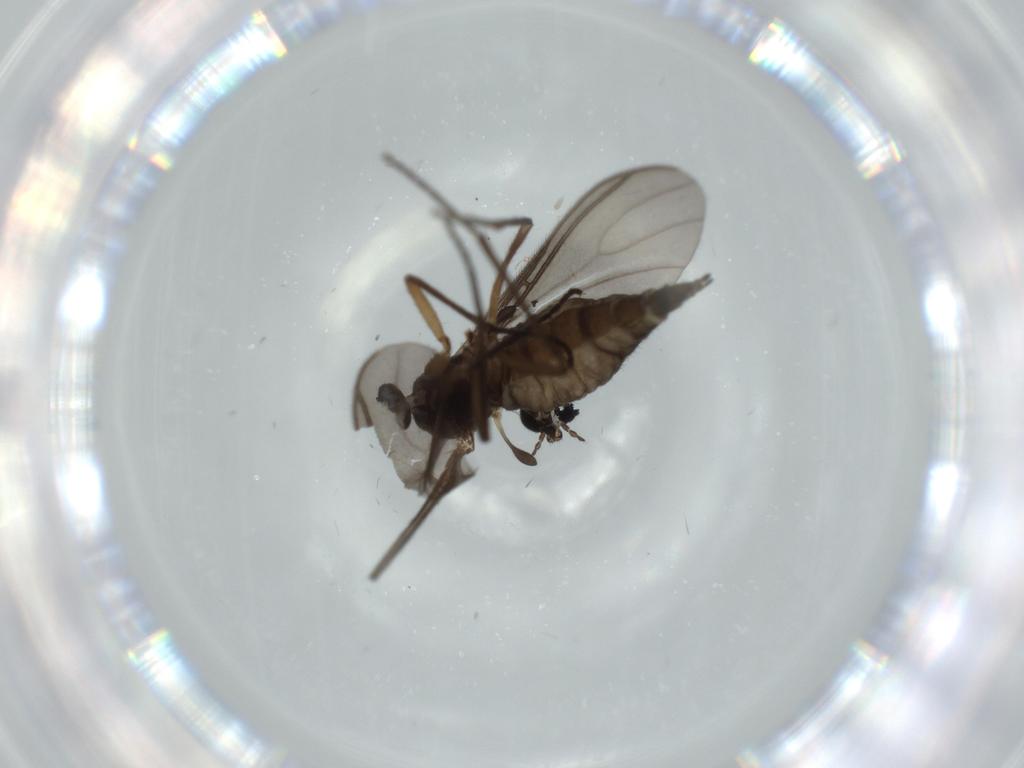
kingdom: Animalia
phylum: Arthropoda
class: Insecta
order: Diptera
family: Sciaridae
